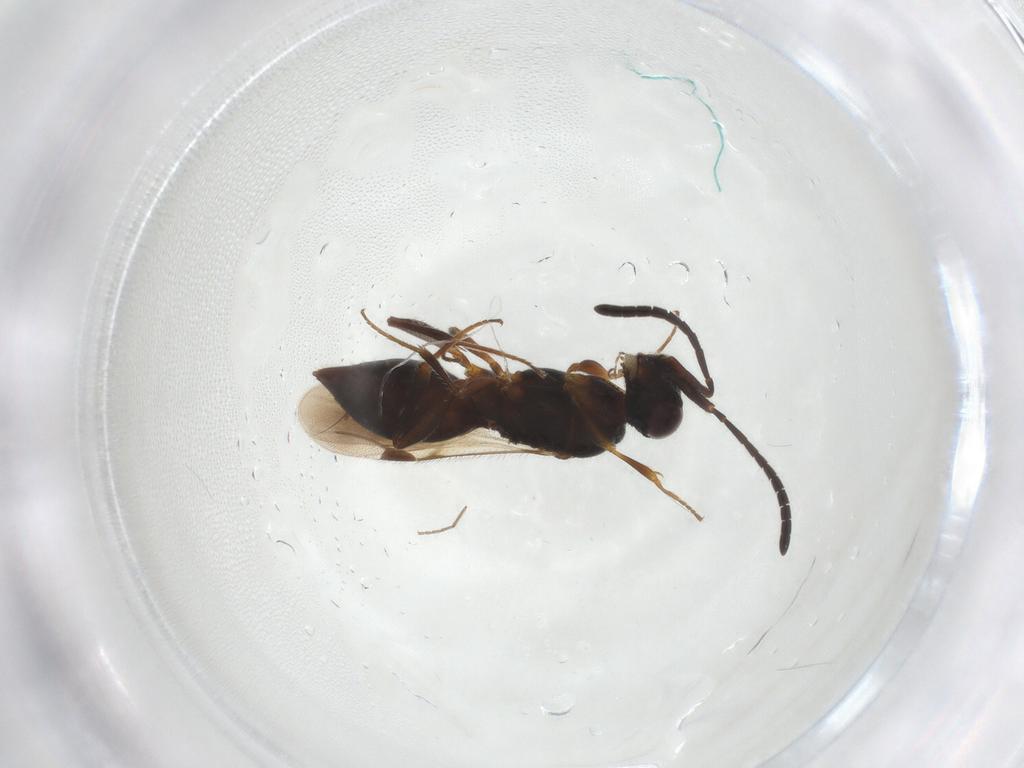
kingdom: Animalia
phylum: Arthropoda
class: Insecta
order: Hymenoptera
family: Megaspilidae
